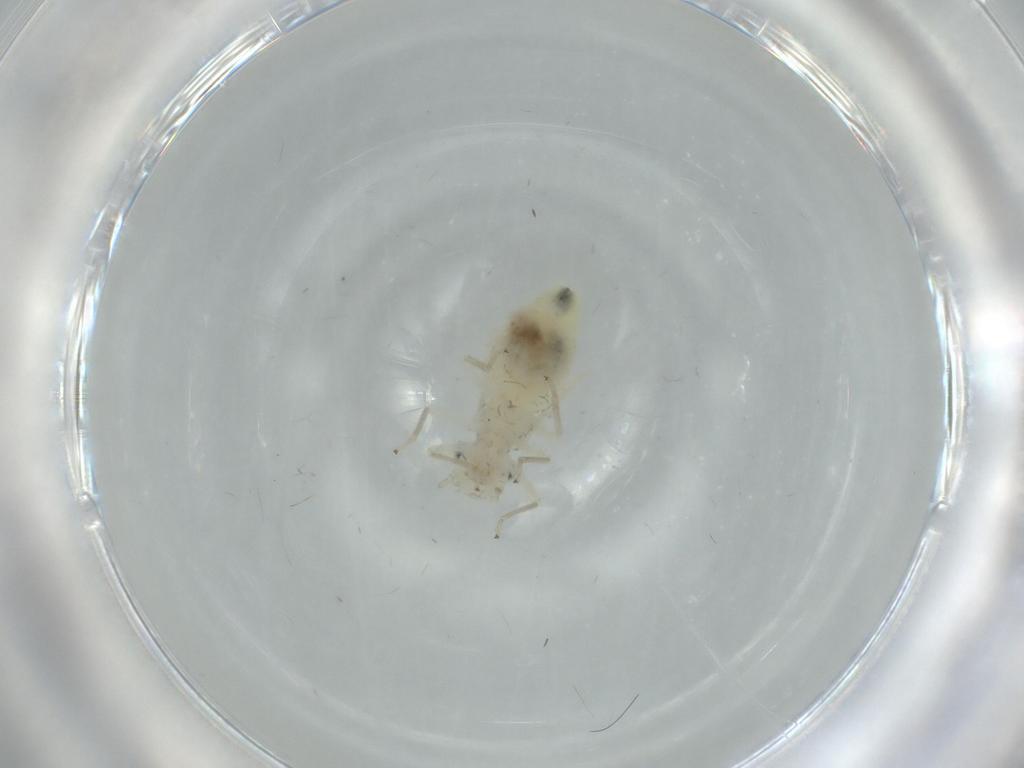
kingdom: Animalia
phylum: Arthropoda
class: Insecta
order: Psocodea
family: Caeciliusidae
